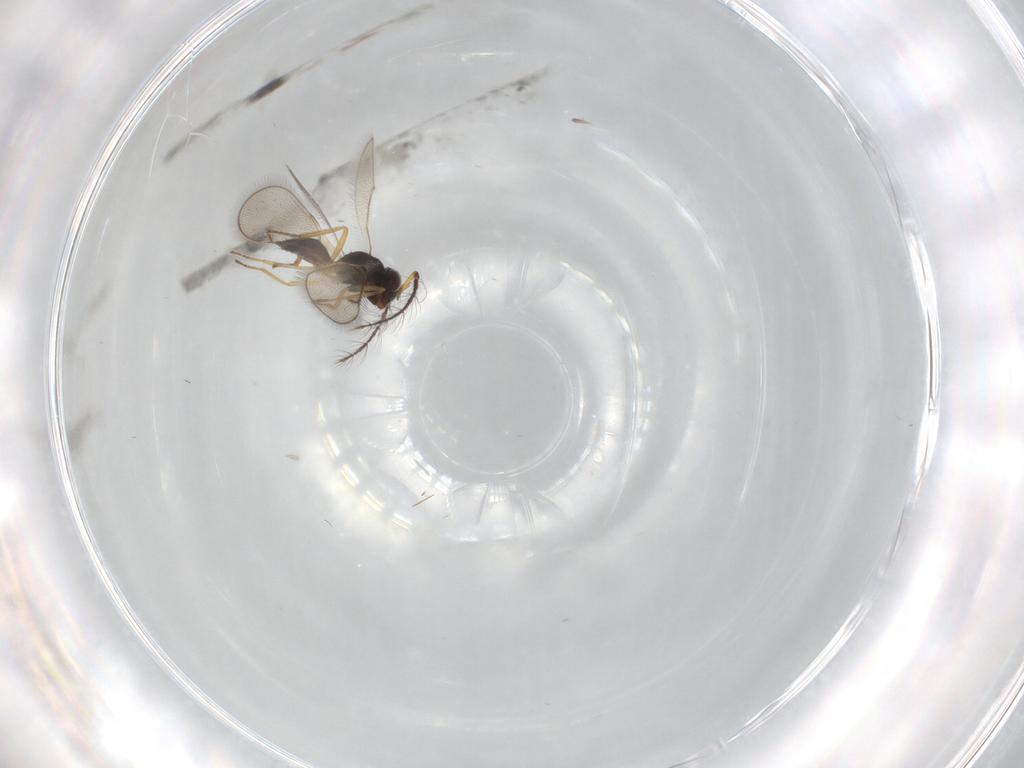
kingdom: Animalia
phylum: Arthropoda
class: Insecta
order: Hymenoptera
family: Eulophidae
